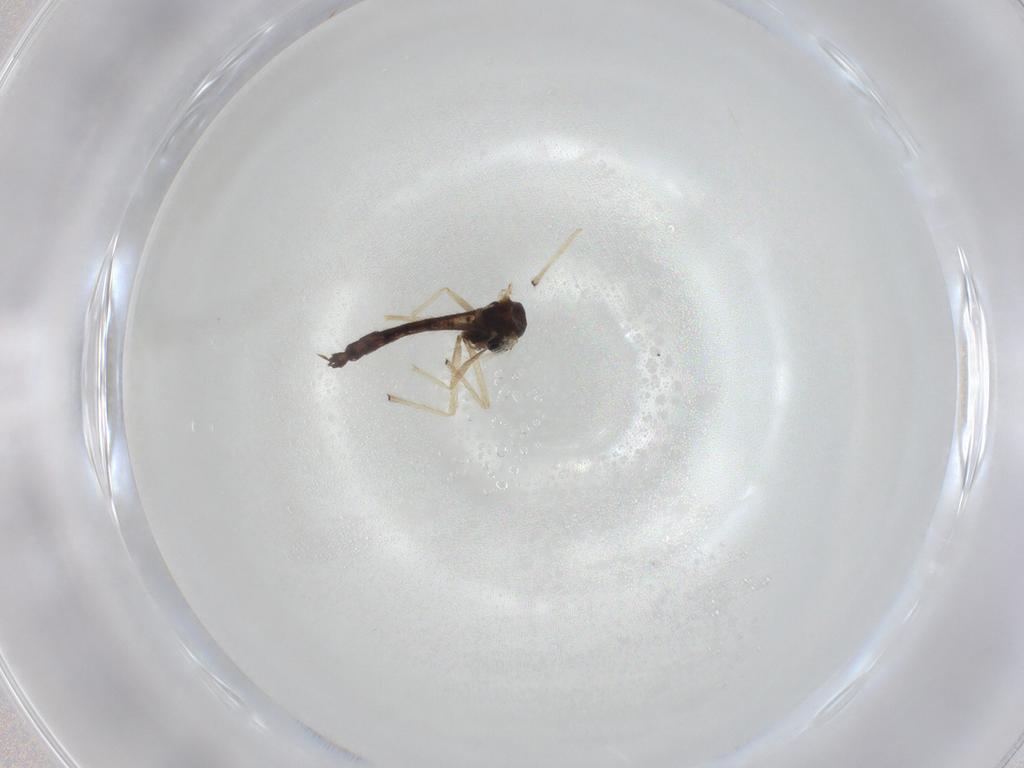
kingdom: Animalia
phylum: Arthropoda
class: Insecta
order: Diptera
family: Chironomidae
